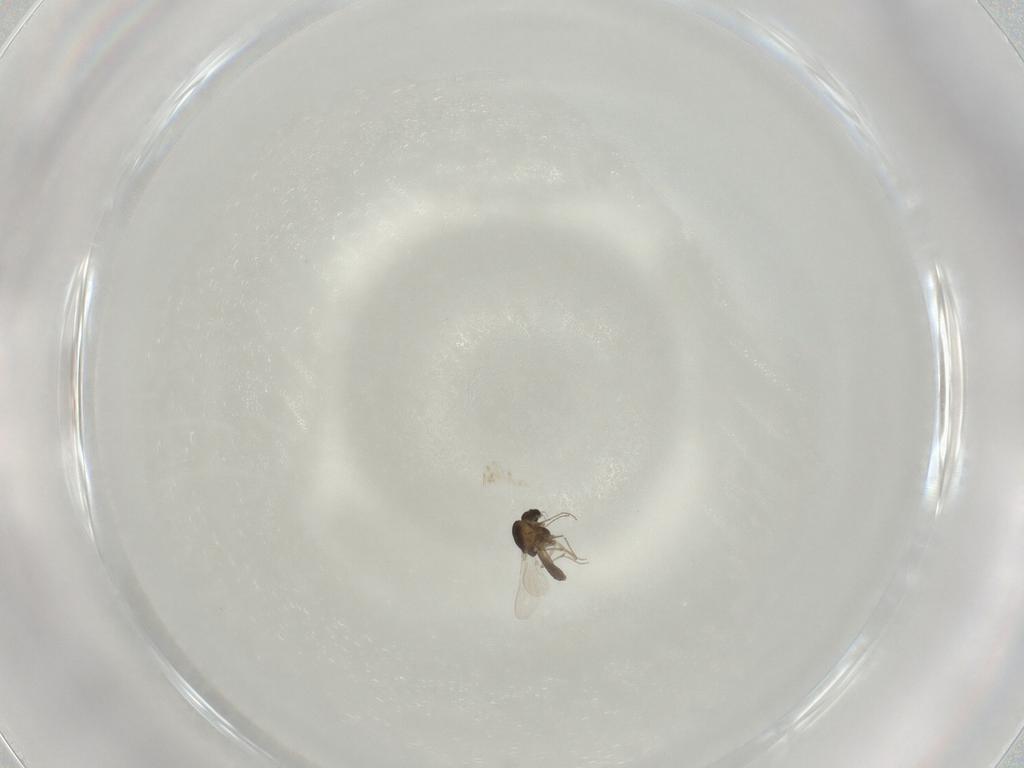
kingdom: Animalia
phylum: Arthropoda
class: Insecta
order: Diptera
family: Chironomidae
